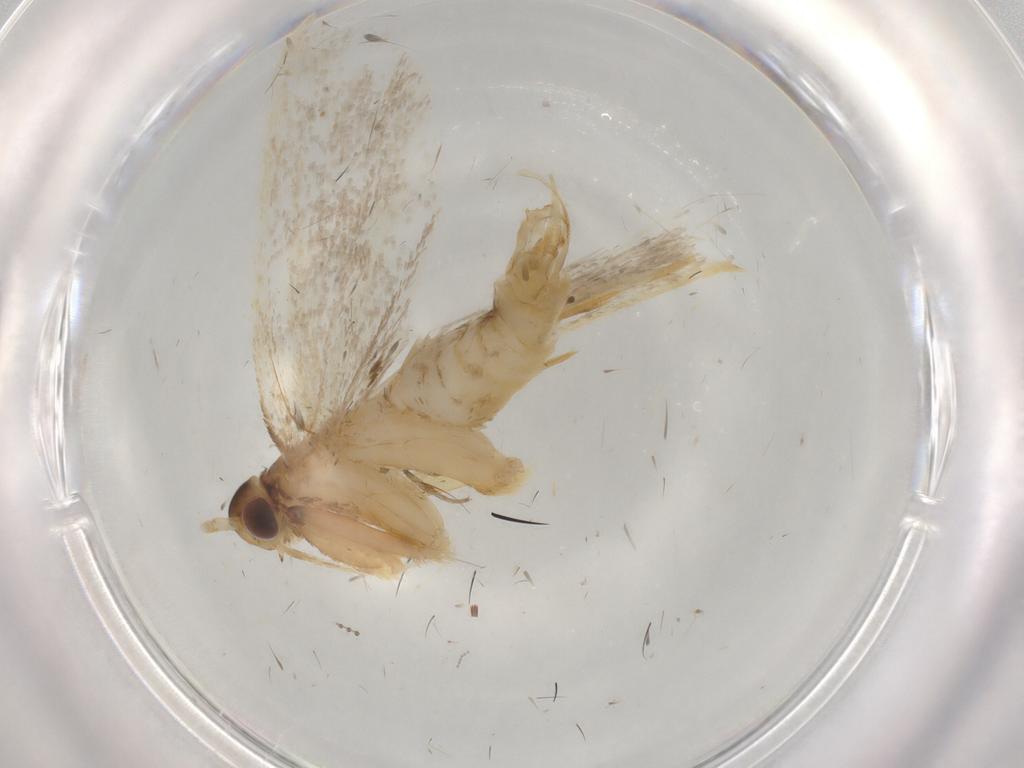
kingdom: Animalia
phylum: Arthropoda
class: Insecta
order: Lepidoptera
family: Lecithoceridae
